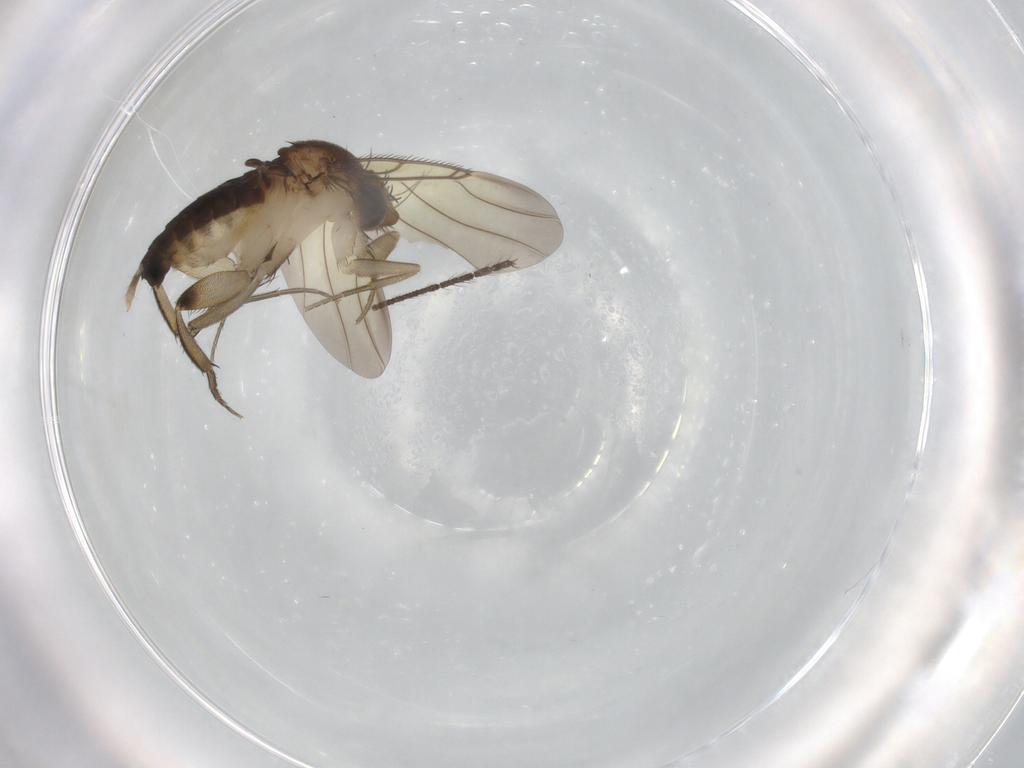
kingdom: Animalia
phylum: Arthropoda
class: Insecta
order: Diptera
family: Phoridae
